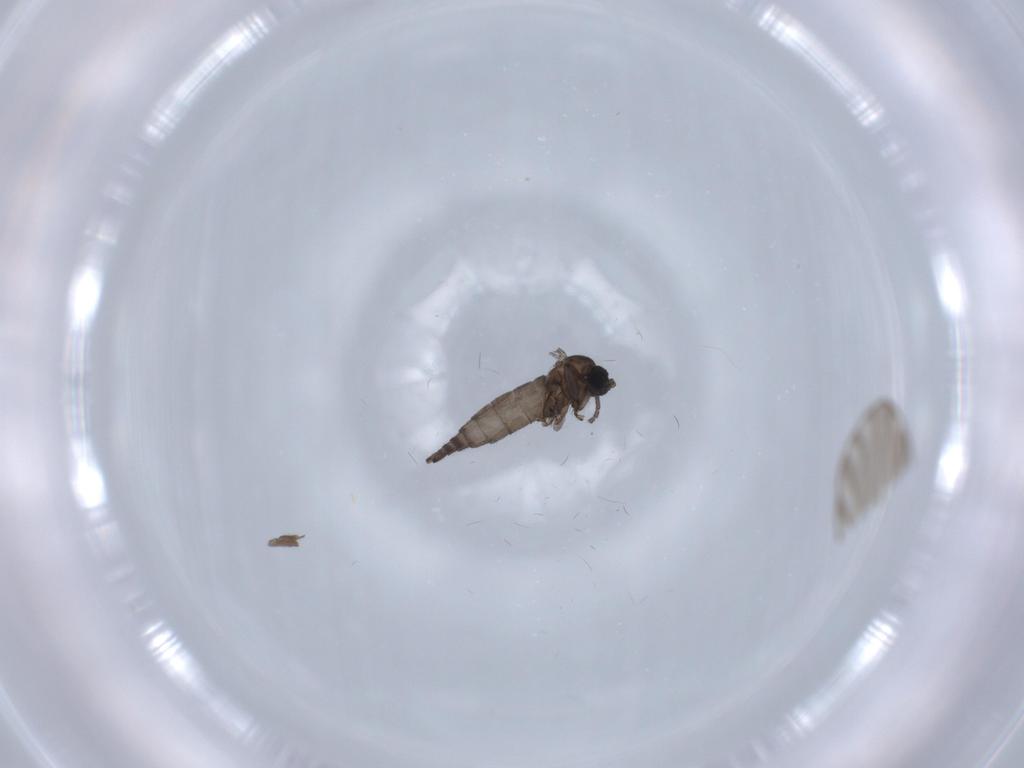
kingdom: Animalia
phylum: Arthropoda
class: Insecta
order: Diptera
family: Sciaridae
